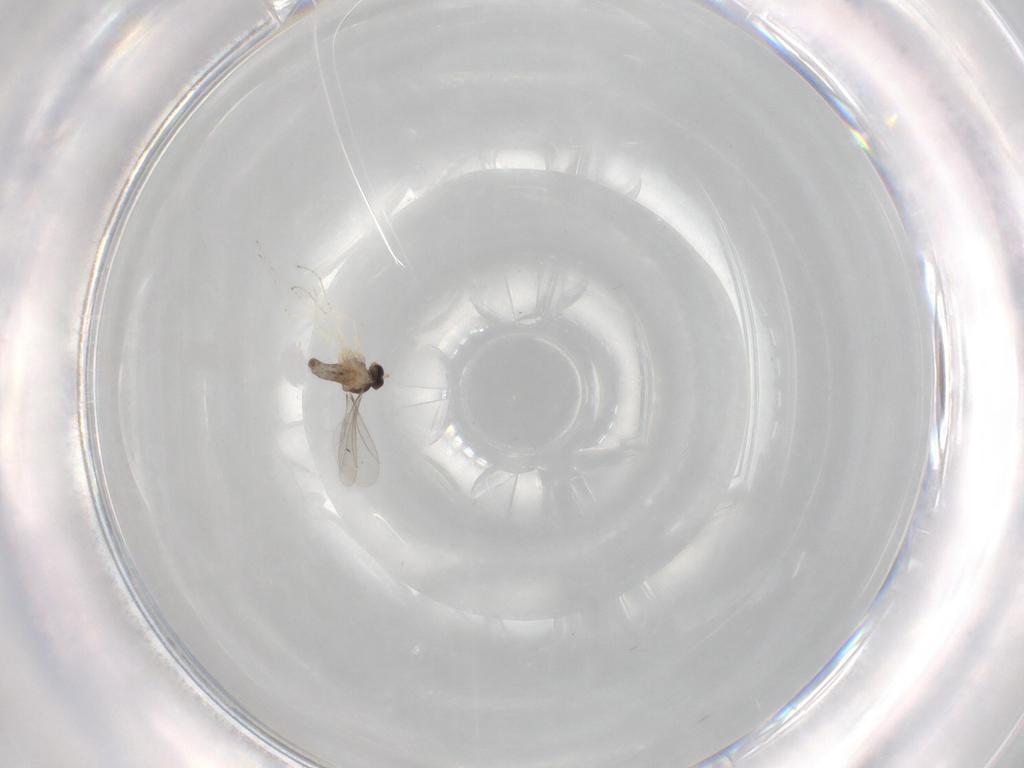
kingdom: Animalia
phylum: Arthropoda
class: Insecta
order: Diptera
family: Cecidomyiidae
